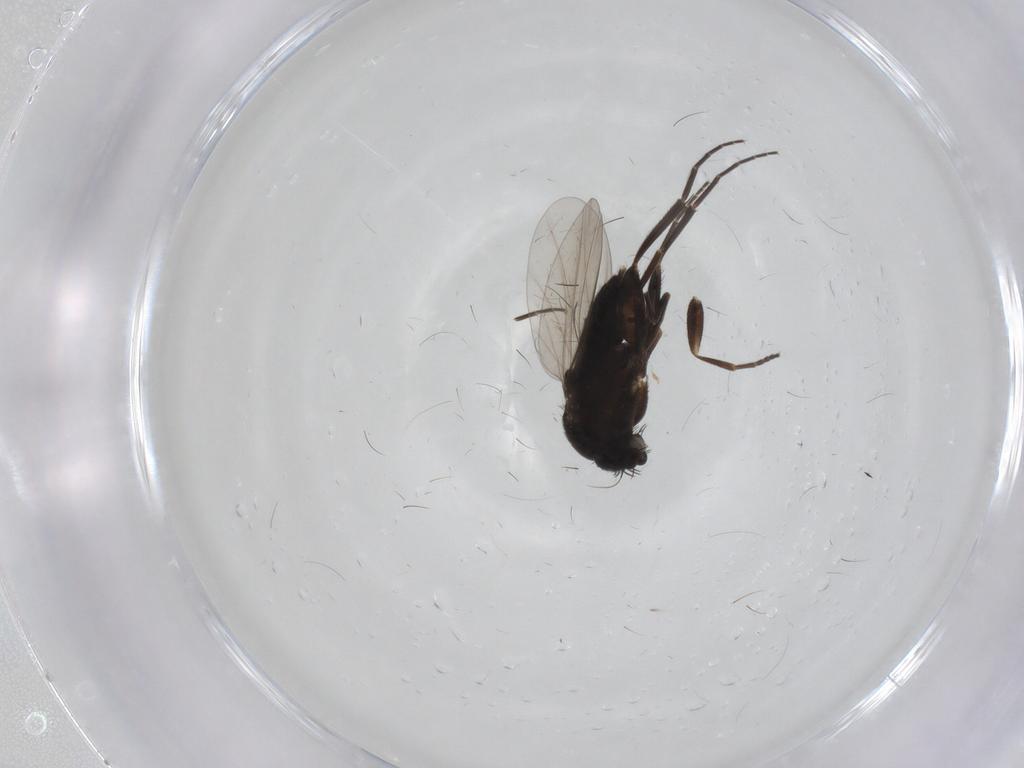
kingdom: Animalia
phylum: Arthropoda
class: Insecta
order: Diptera
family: Phoridae
